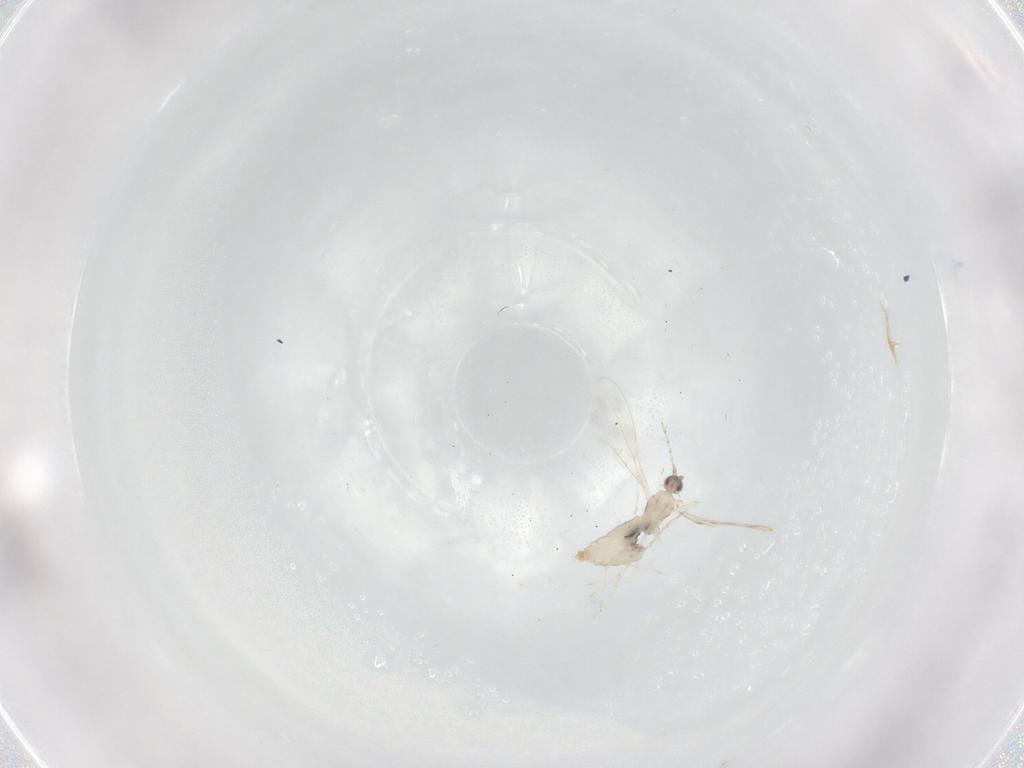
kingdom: Animalia
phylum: Arthropoda
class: Insecta
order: Diptera
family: Cecidomyiidae
